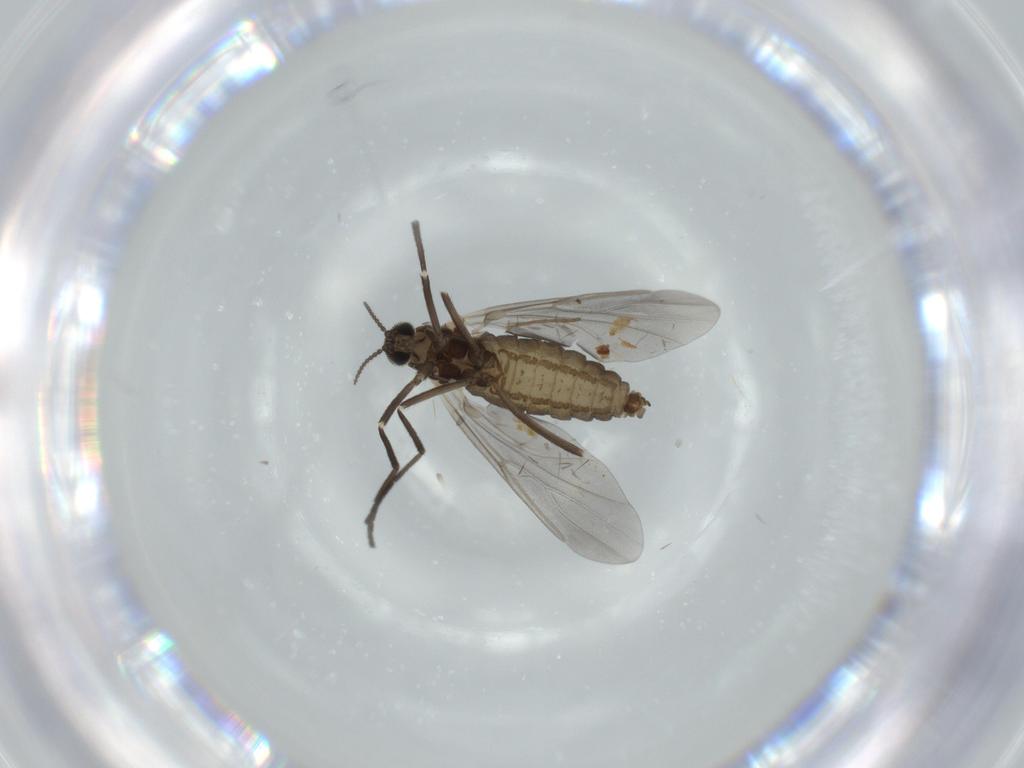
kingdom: Animalia
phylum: Arthropoda
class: Insecta
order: Diptera
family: Cecidomyiidae
